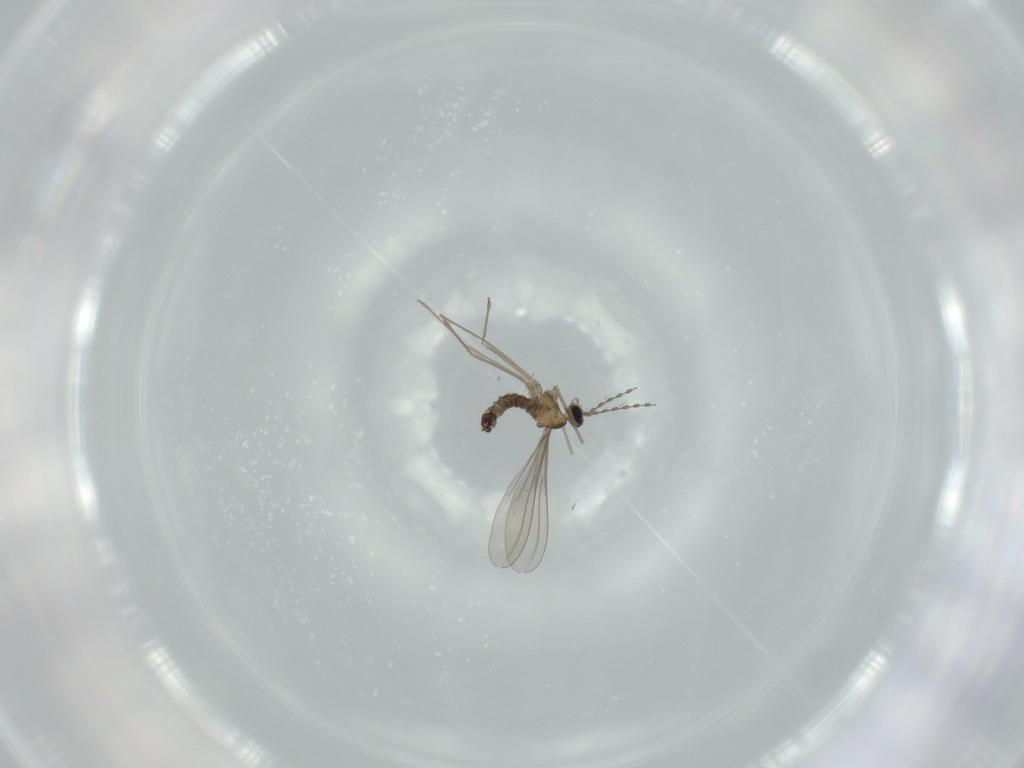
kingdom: Animalia
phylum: Arthropoda
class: Insecta
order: Diptera
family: Cecidomyiidae
